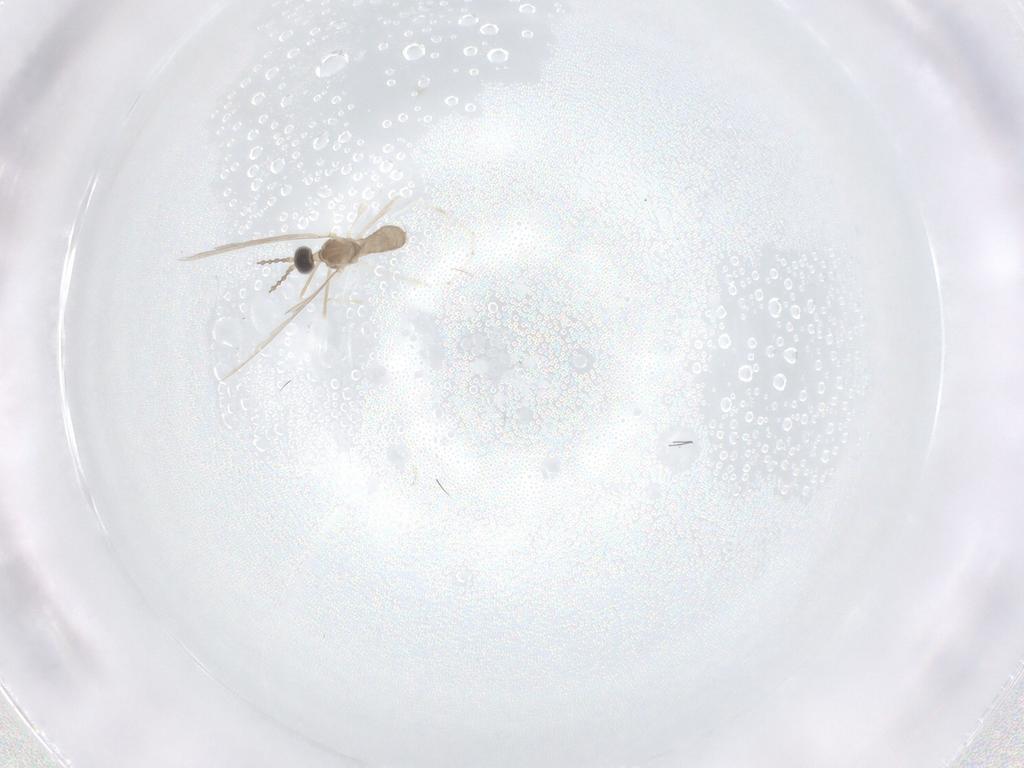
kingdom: Animalia
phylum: Arthropoda
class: Insecta
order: Diptera
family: Cecidomyiidae
